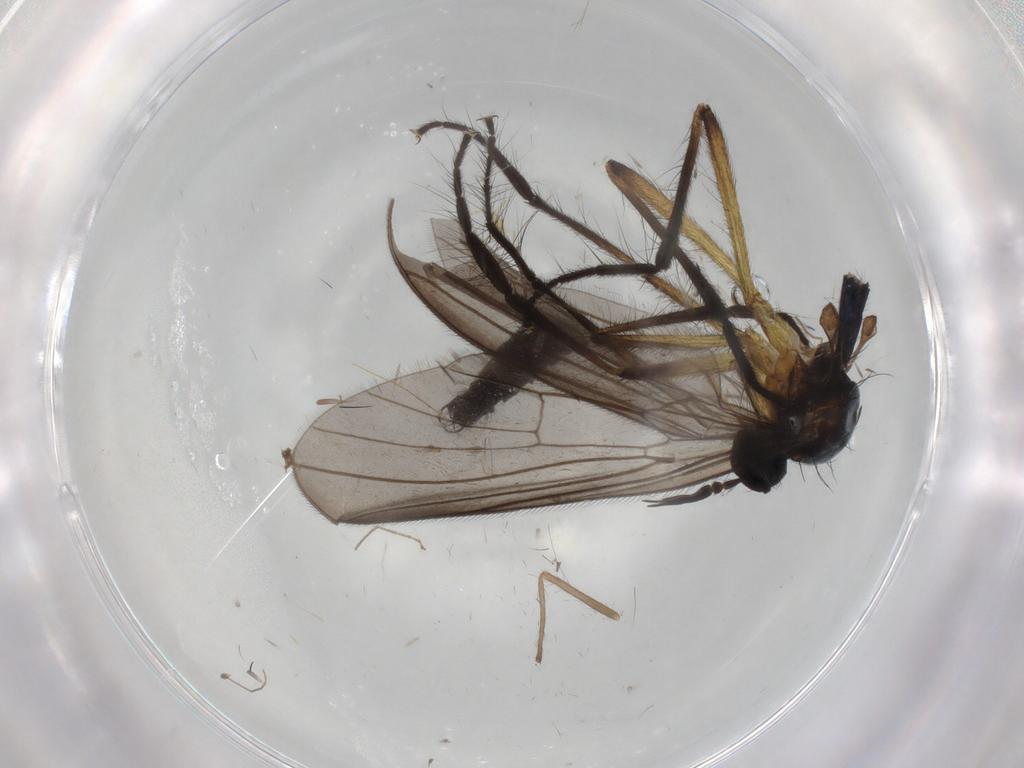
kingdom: Animalia
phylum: Arthropoda
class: Insecta
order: Diptera
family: Empididae
